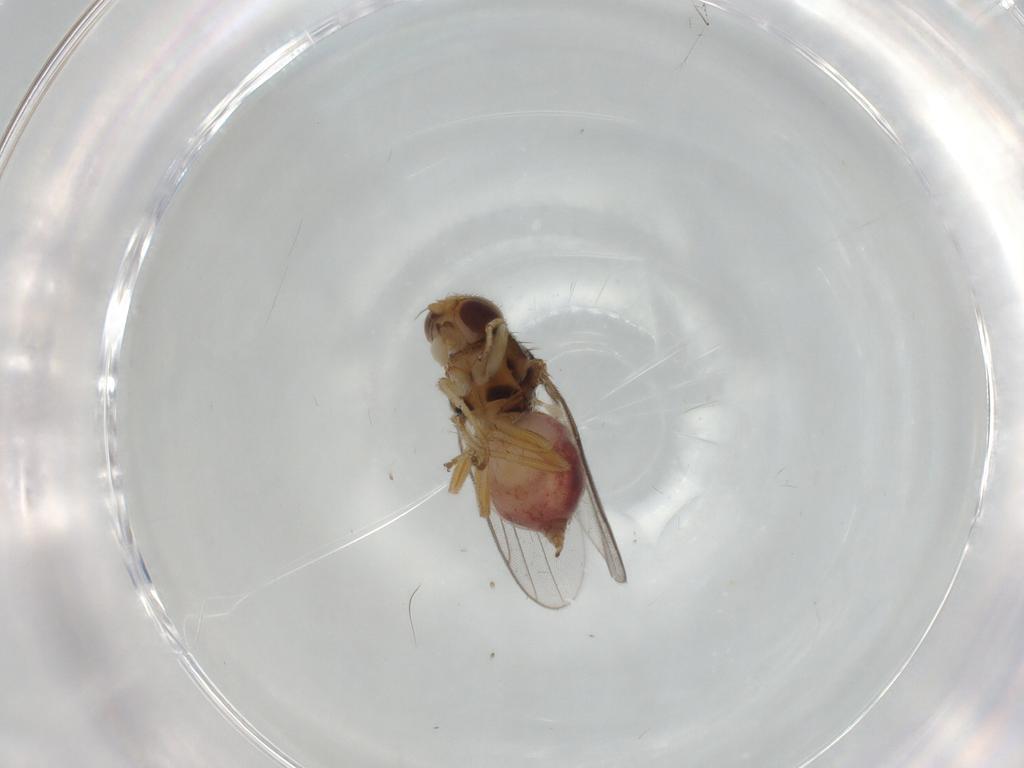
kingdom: Animalia
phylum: Arthropoda
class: Insecta
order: Diptera
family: Chloropidae
